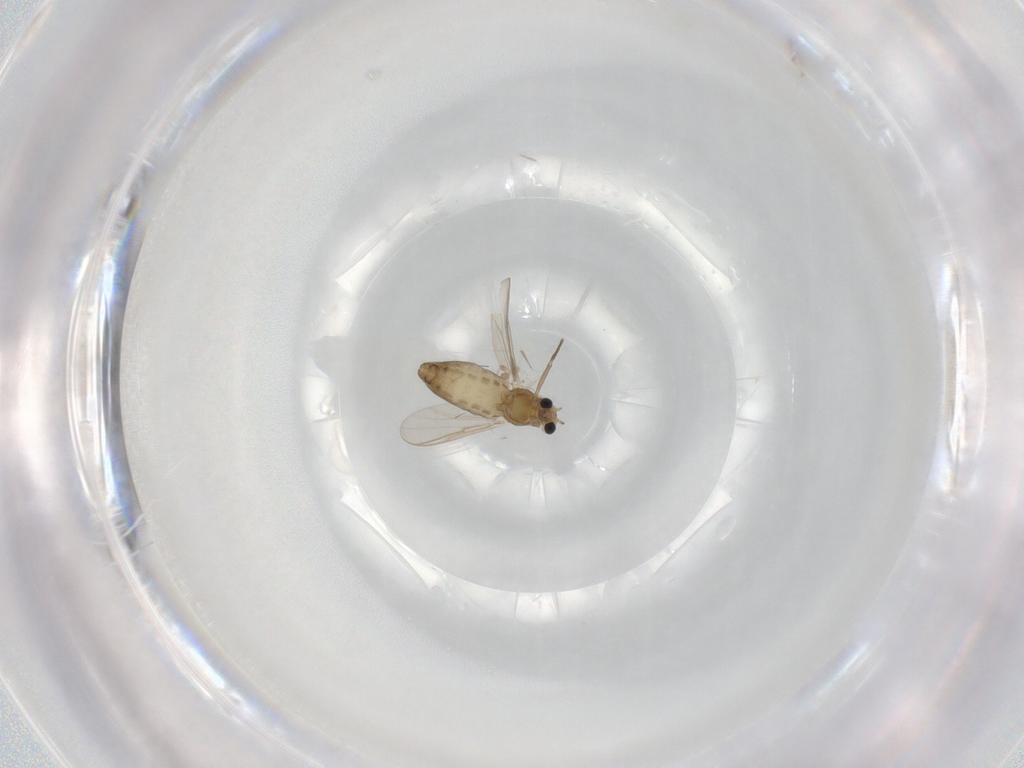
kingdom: Animalia
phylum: Arthropoda
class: Insecta
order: Diptera
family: Chironomidae
